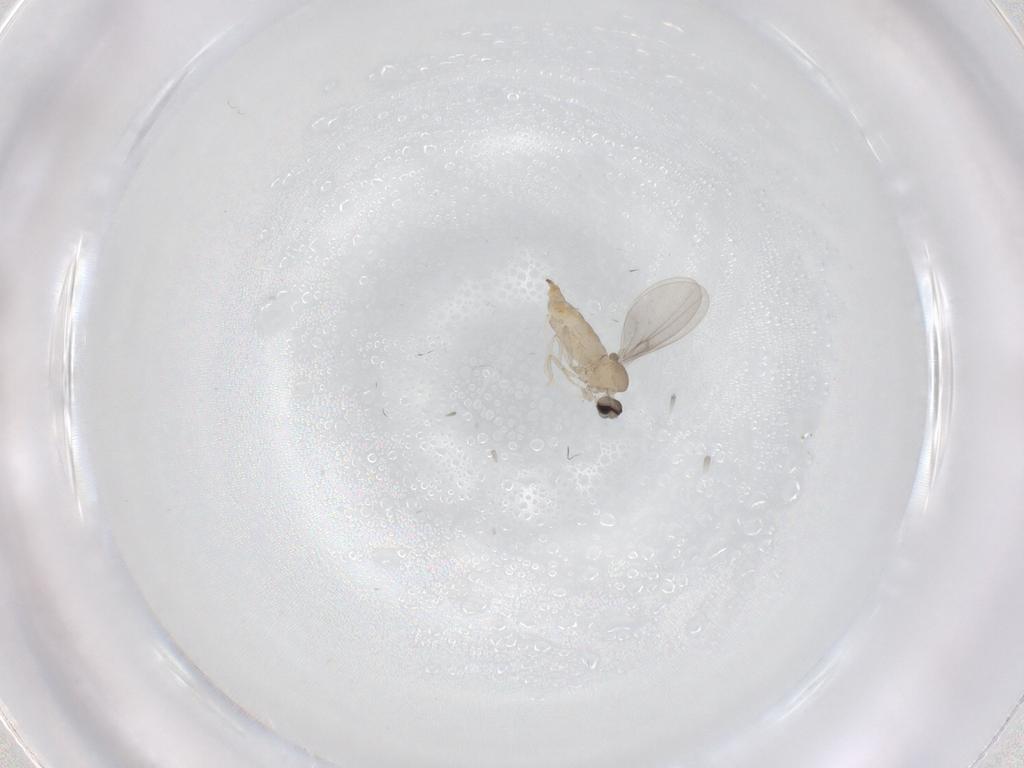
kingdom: Animalia
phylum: Arthropoda
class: Insecta
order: Diptera
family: Cecidomyiidae
